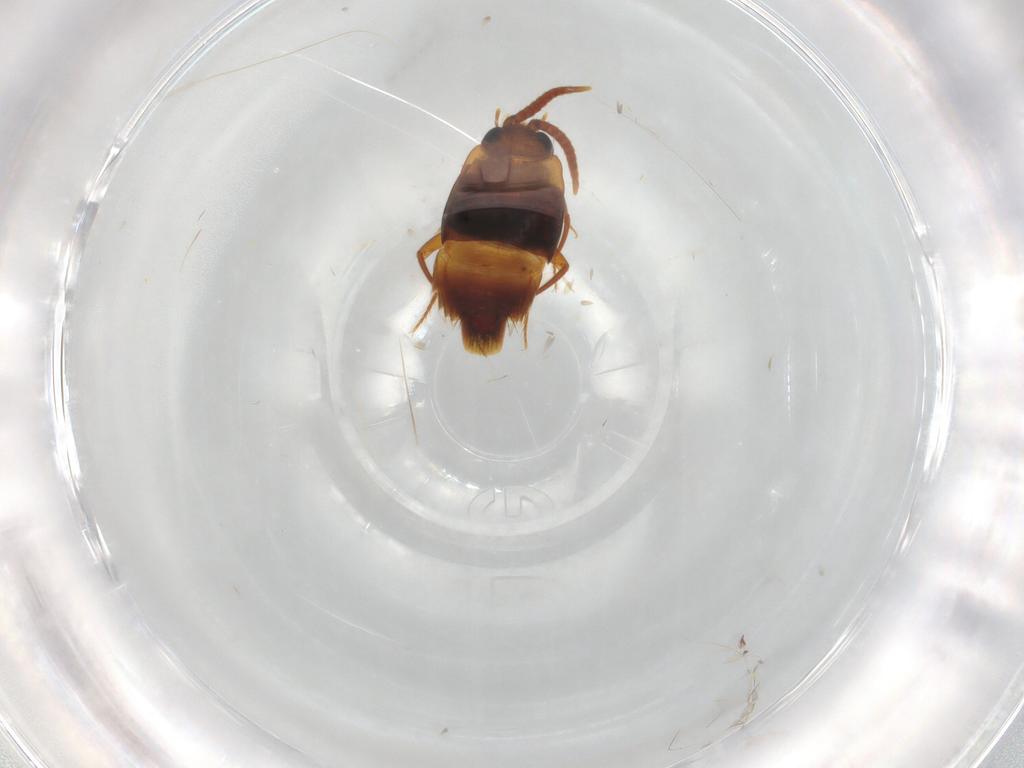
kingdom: Animalia
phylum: Arthropoda
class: Insecta
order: Coleoptera
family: Staphylinidae
